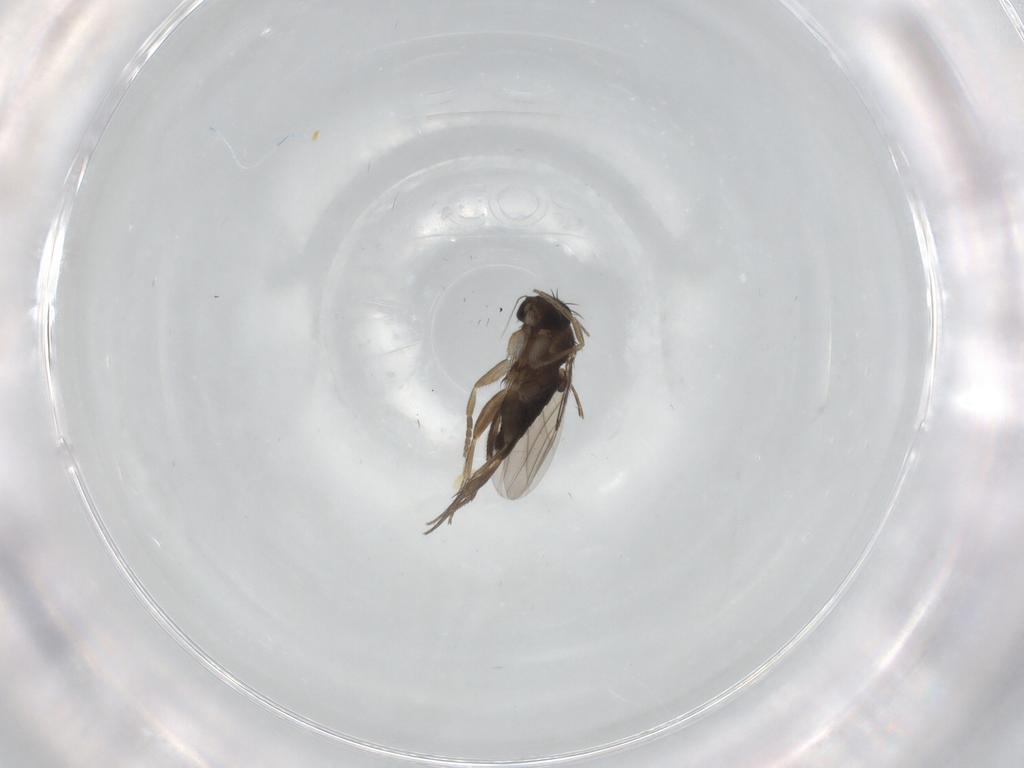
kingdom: Animalia
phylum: Arthropoda
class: Insecta
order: Diptera
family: Phoridae
